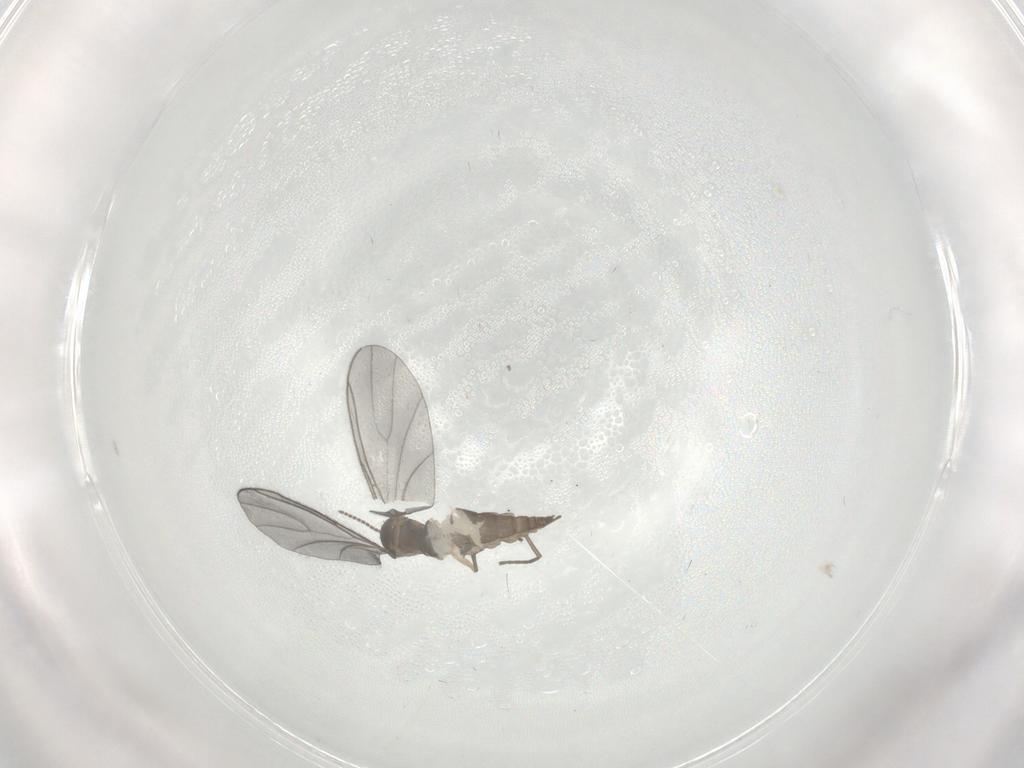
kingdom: Animalia
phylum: Arthropoda
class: Insecta
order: Diptera
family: Sciaridae
